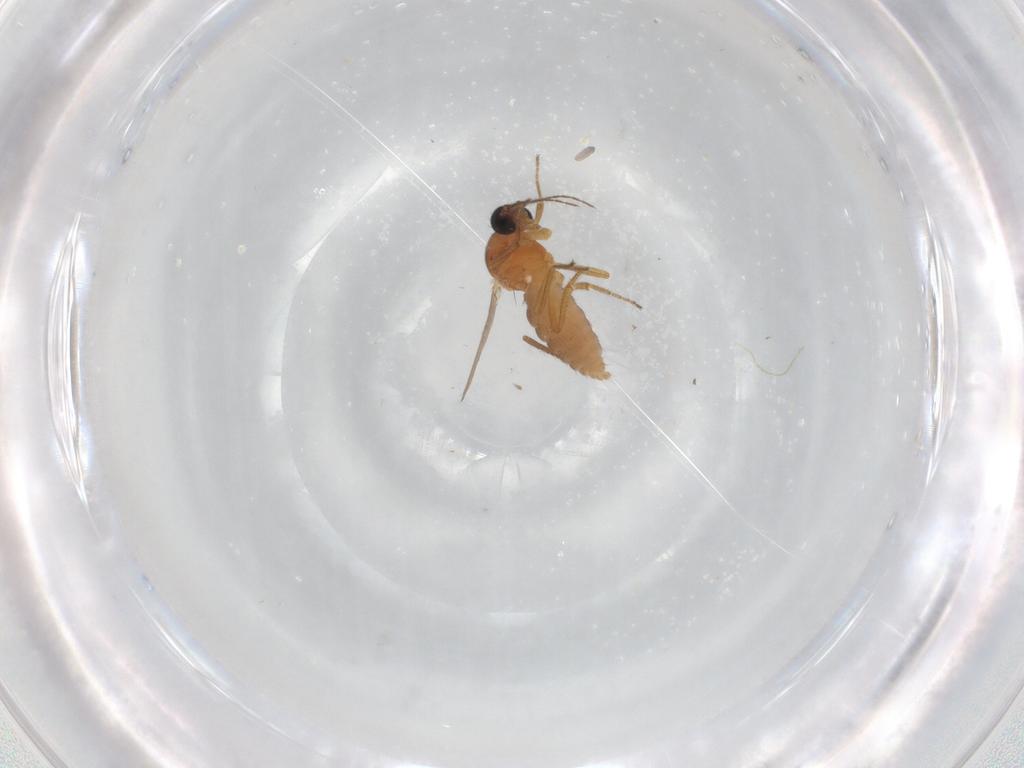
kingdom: Animalia
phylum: Arthropoda
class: Insecta
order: Diptera
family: Ceratopogonidae
